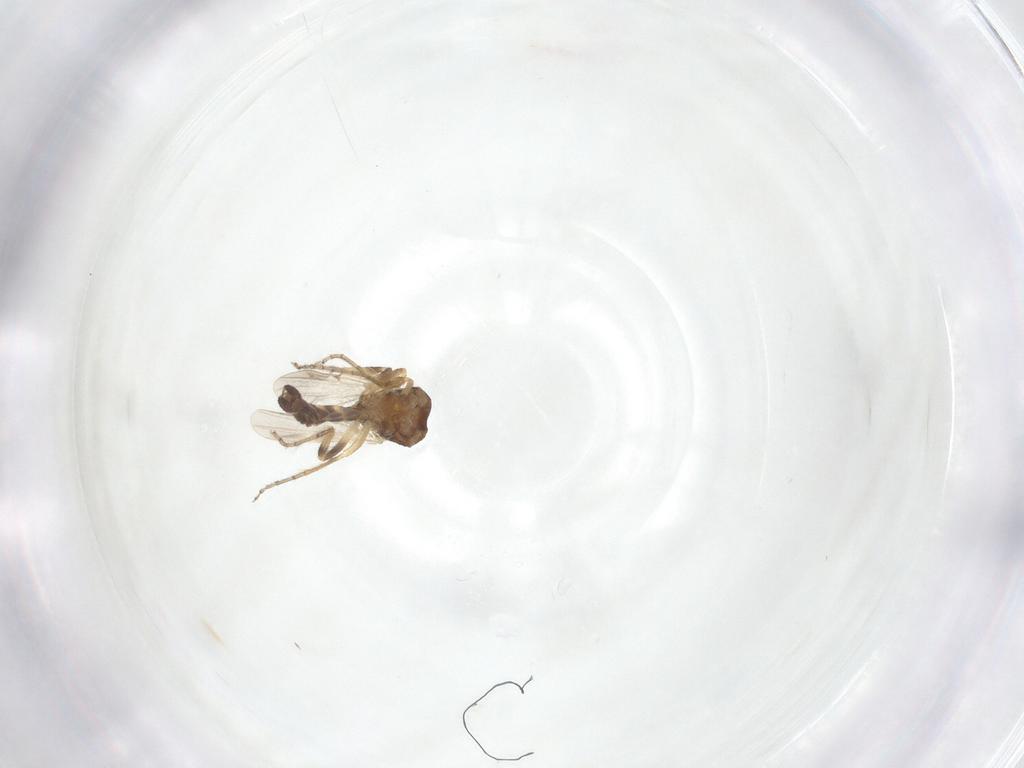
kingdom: Animalia
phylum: Arthropoda
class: Insecta
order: Diptera
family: Ceratopogonidae
